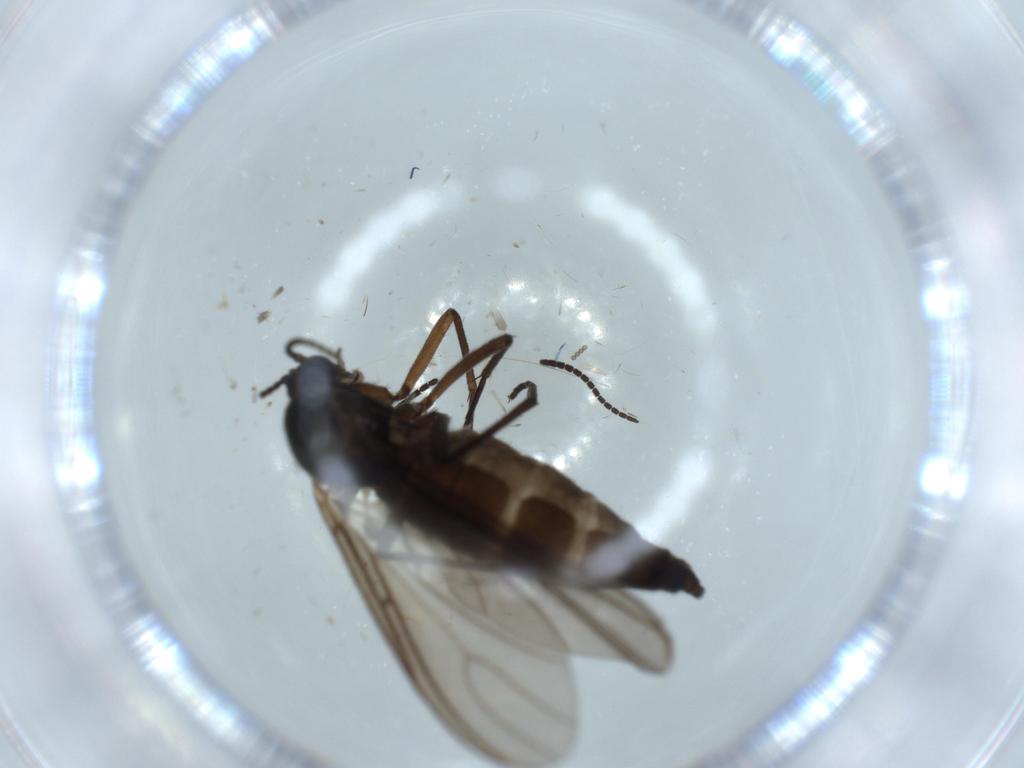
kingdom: Animalia
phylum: Arthropoda
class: Insecta
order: Diptera
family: Sciaridae
